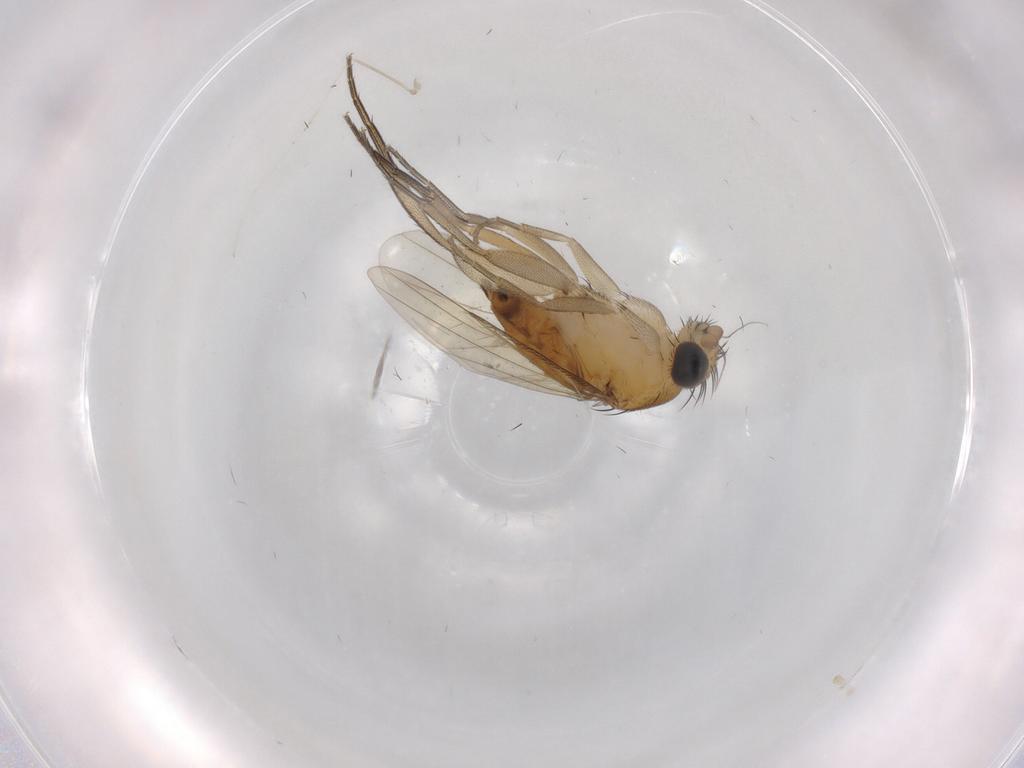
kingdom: Animalia
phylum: Arthropoda
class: Insecta
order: Diptera
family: Phoridae
